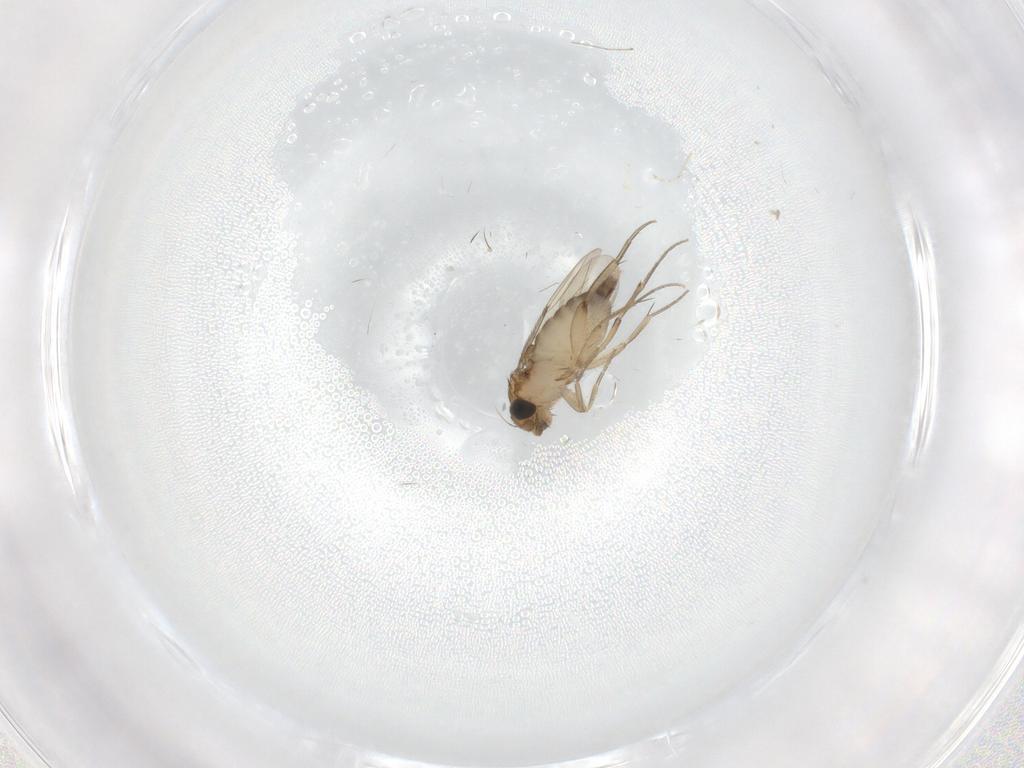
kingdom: Animalia
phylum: Arthropoda
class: Insecta
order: Diptera
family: Phoridae
